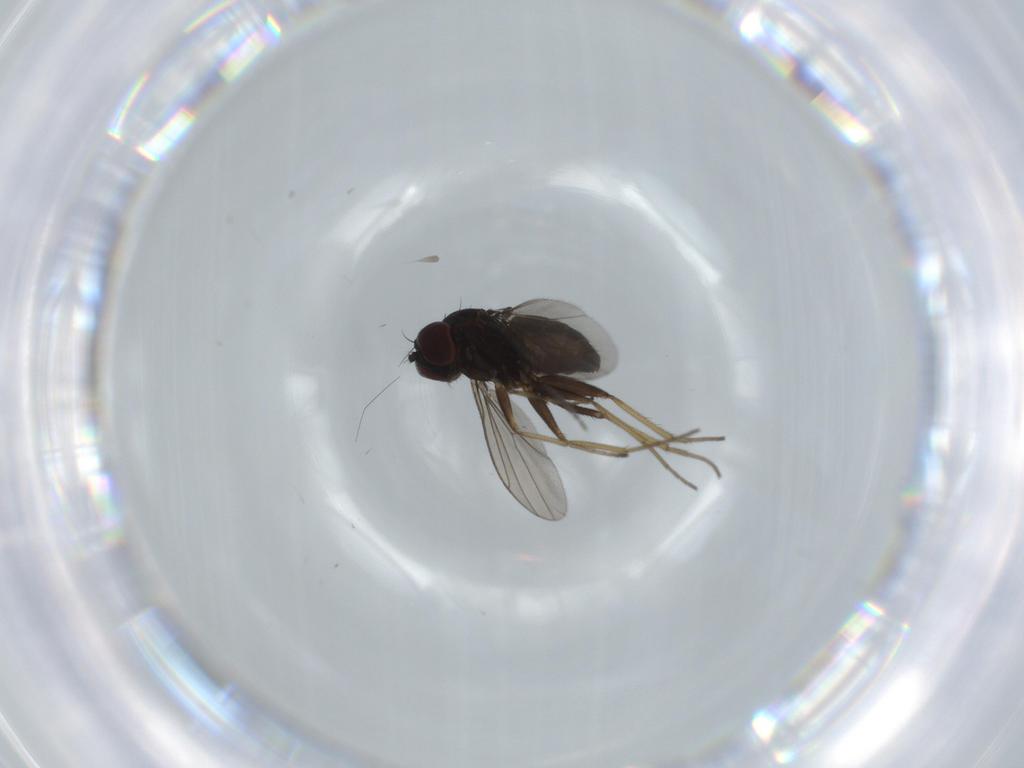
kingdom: Animalia
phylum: Arthropoda
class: Insecta
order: Diptera
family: Dolichopodidae
